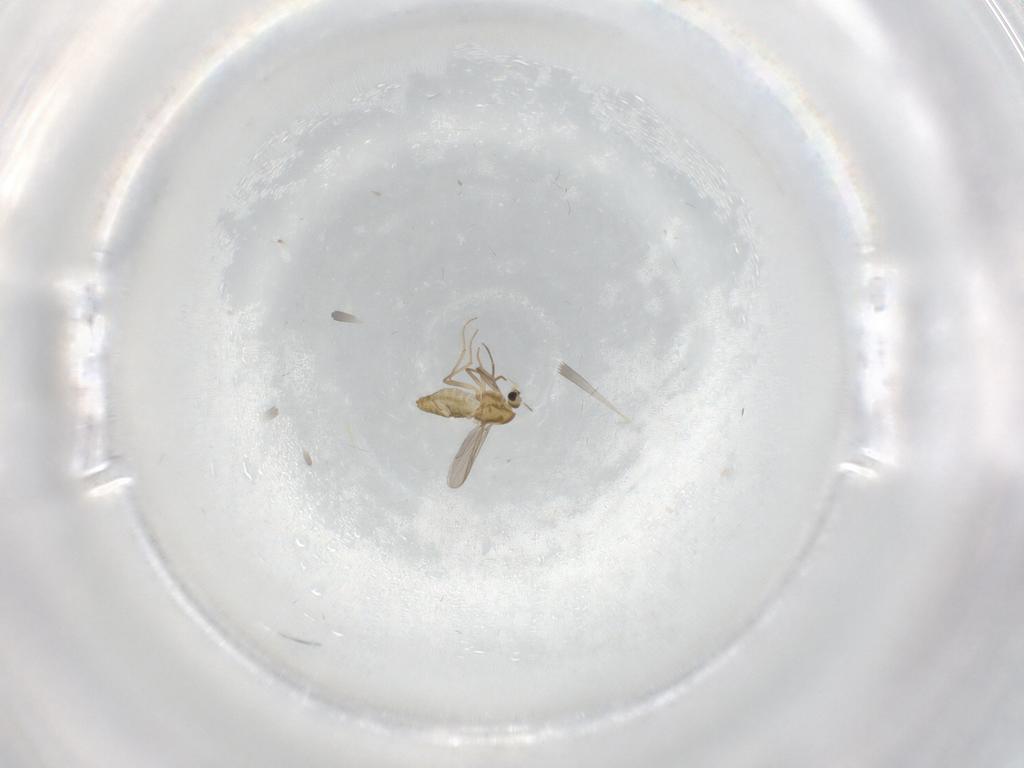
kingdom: Animalia
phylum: Arthropoda
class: Insecta
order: Diptera
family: Chironomidae
